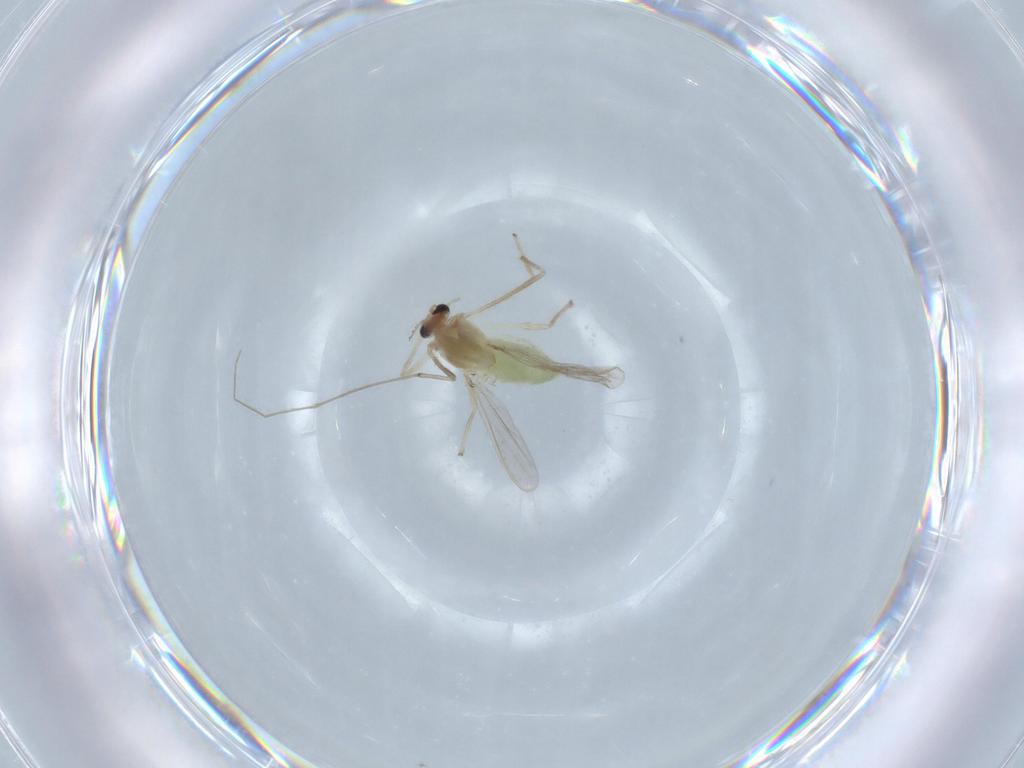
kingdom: Animalia
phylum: Arthropoda
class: Insecta
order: Diptera
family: Chironomidae
